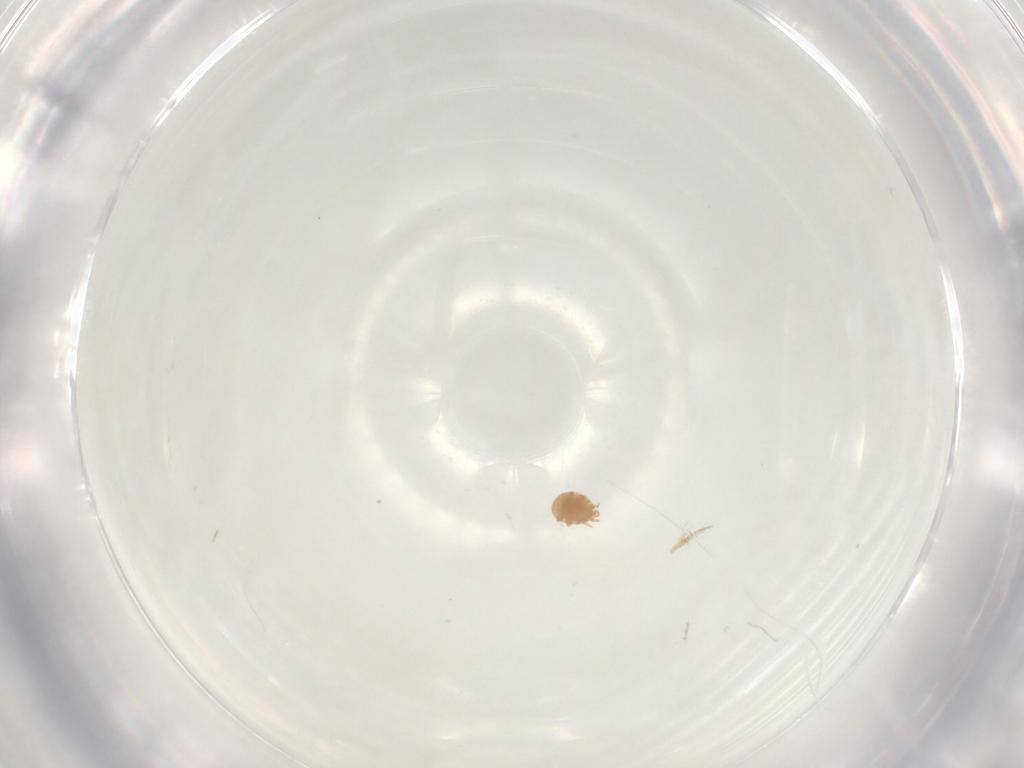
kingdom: Animalia
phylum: Arthropoda
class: Arachnida
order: Mesostigmata
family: Trematuridae
